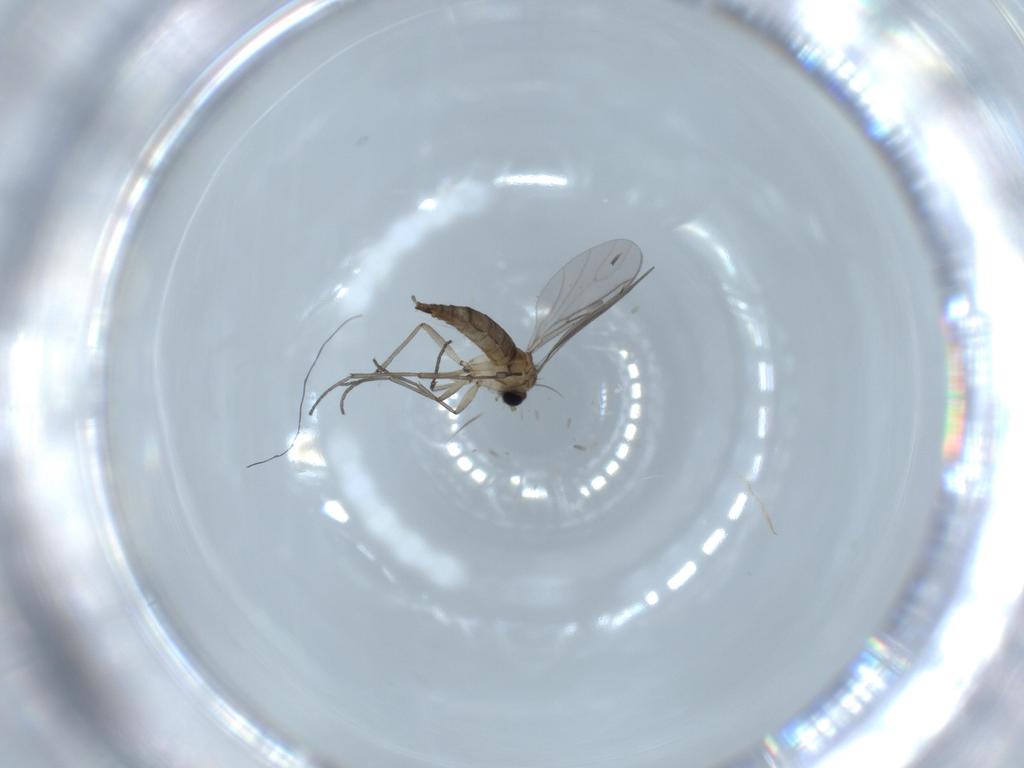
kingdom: Animalia
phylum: Arthropoda
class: Insecta
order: Diptera
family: Sciaridae
